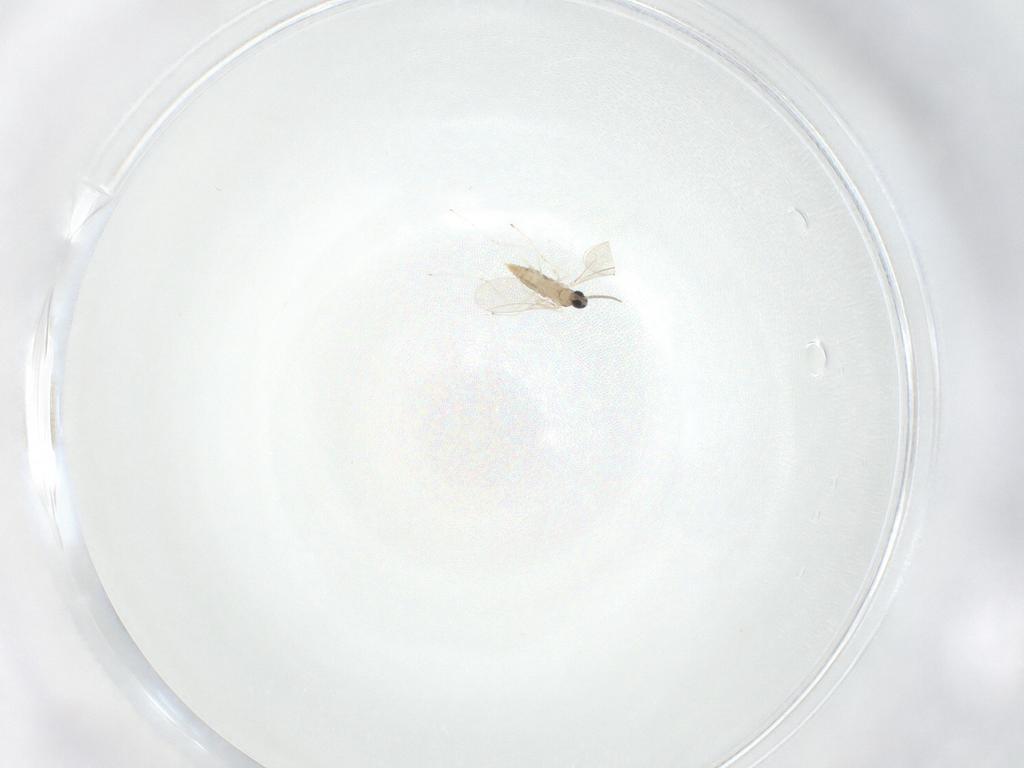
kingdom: Animalia
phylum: Arthropoda
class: Insecta
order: Diptera
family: Cecidomyiidae
